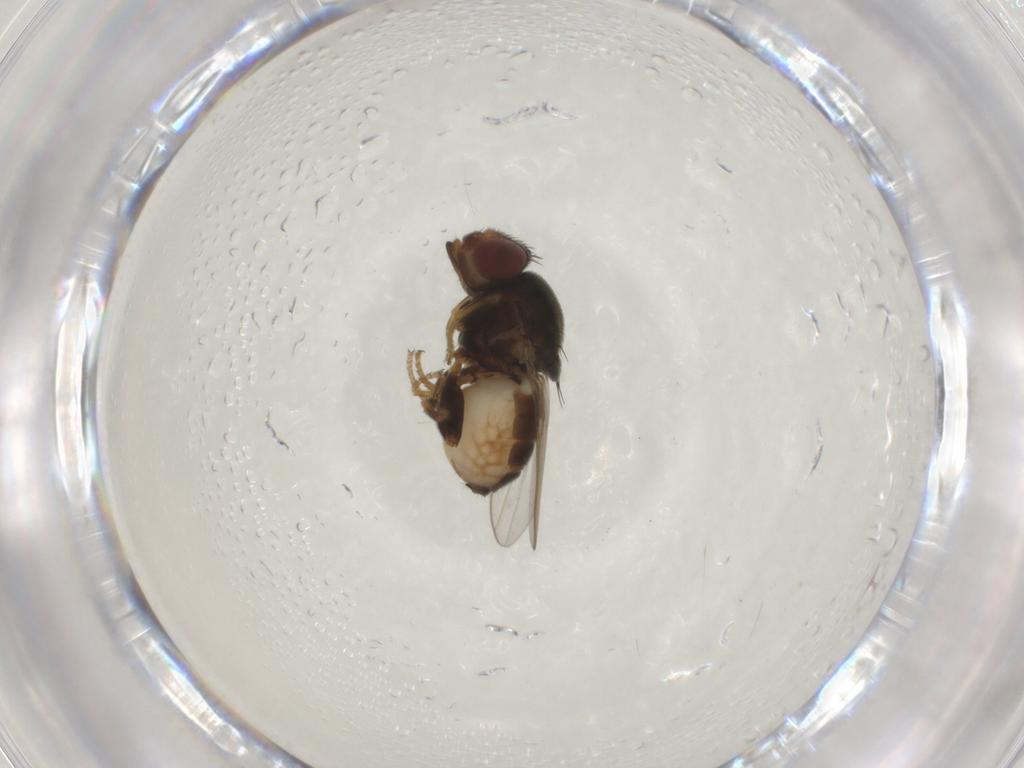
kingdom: Animalia
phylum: Arthropoda
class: Insecta
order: Diptera
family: Chloropidae
